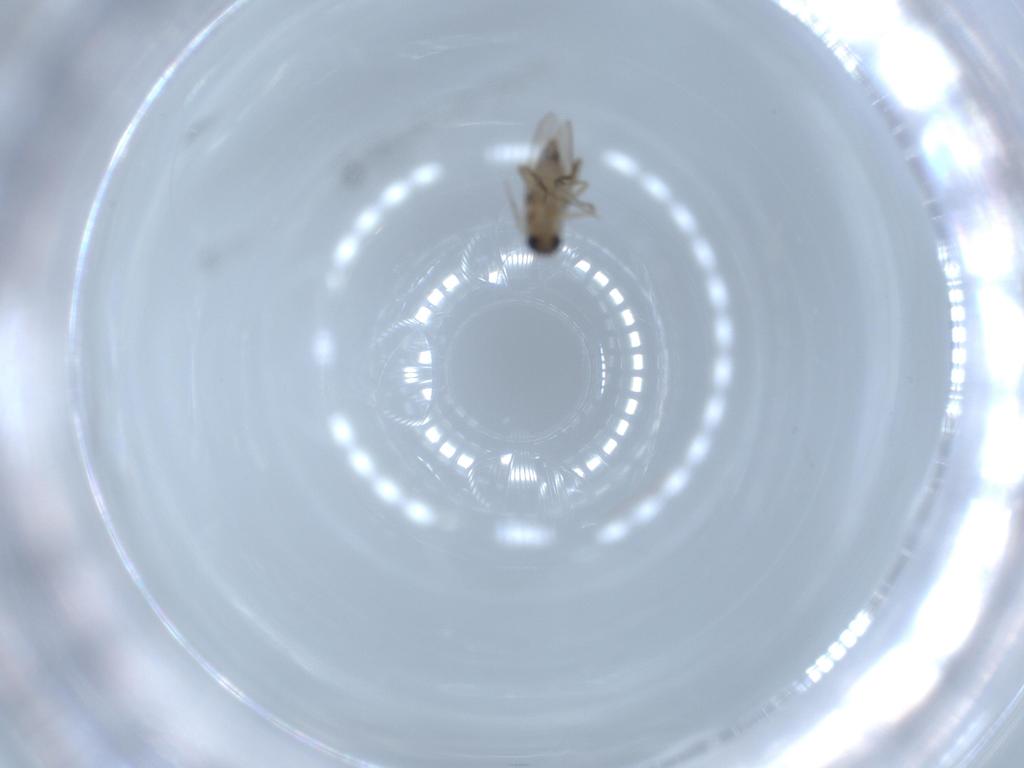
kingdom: Animalia
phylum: Arthropoda
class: Insecta
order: Diptera
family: Phoridae
